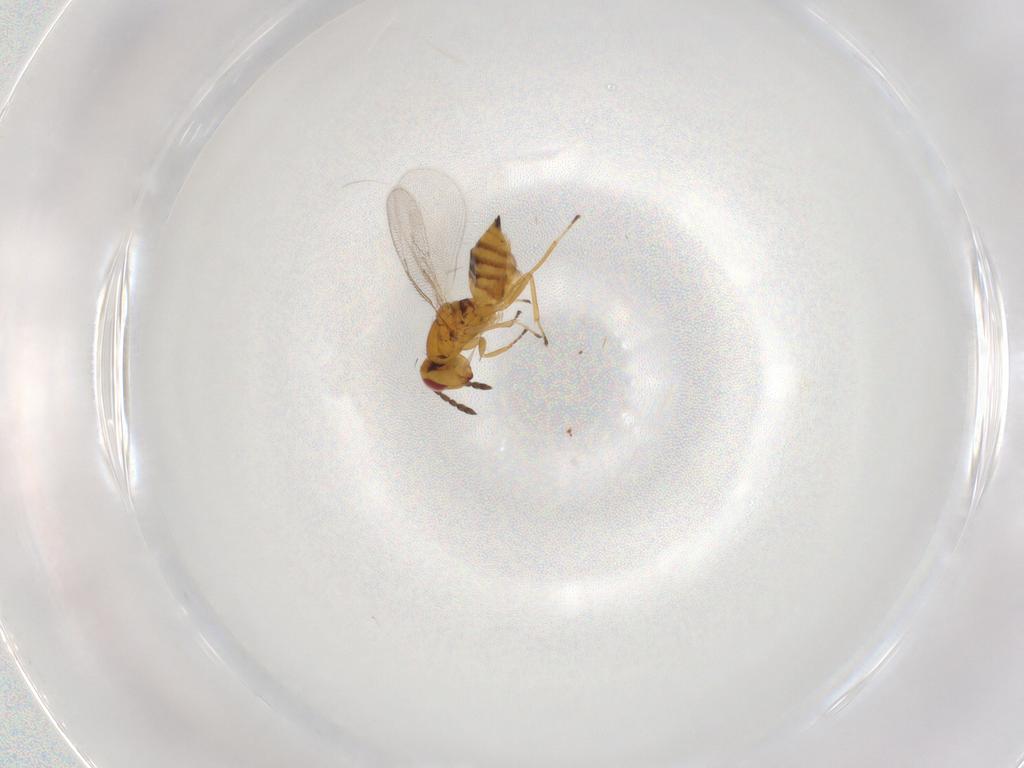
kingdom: Animalia
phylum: Arthropoda
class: Insecta
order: Hymenoptera
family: Eulophidae
